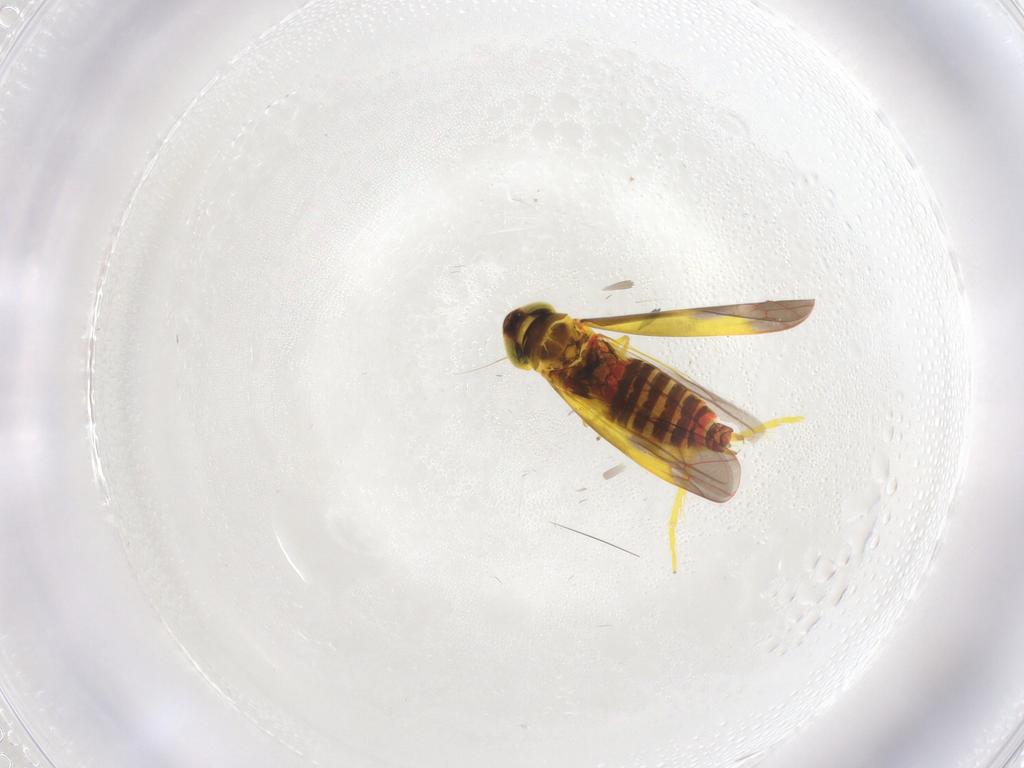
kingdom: Animalia
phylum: Arthropoda
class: Insecta
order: Hemiptera
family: Cicadellidae
